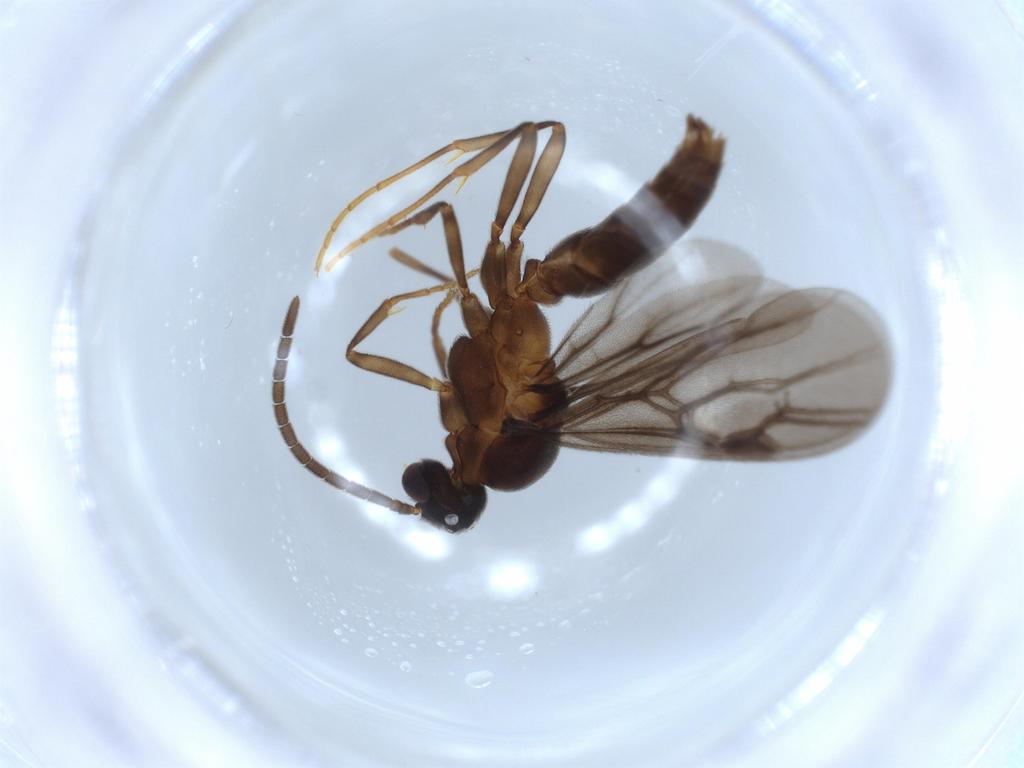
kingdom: Animalia
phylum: Arthropoda
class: Insecta
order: Hymenoptera
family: Formicidae
